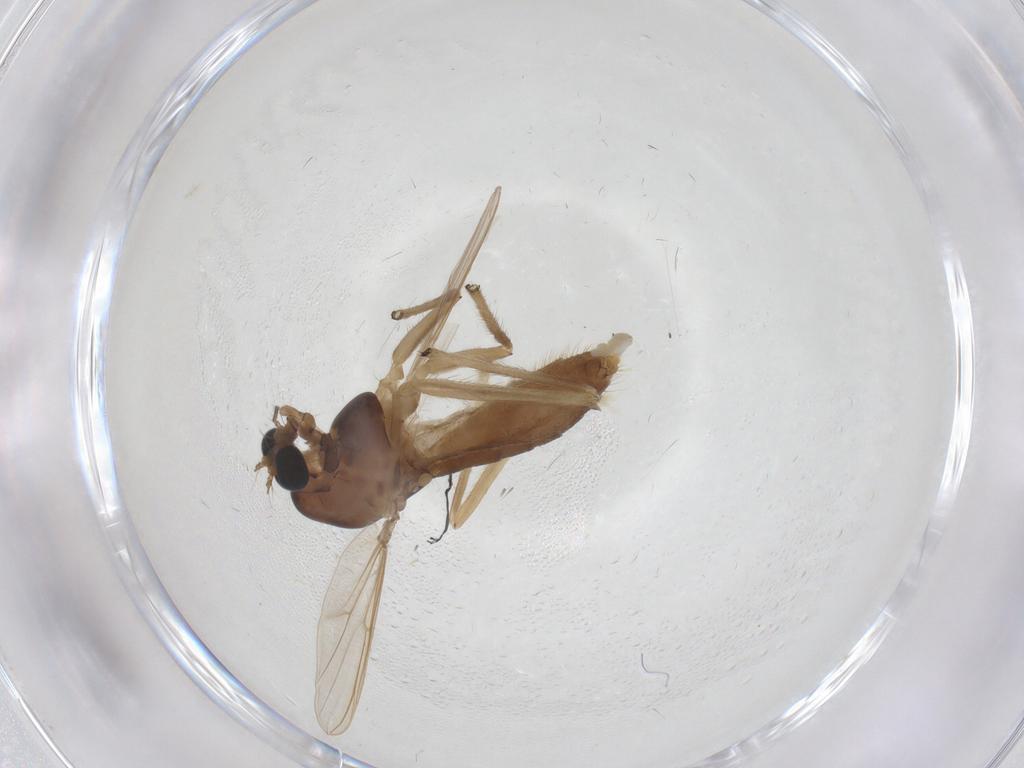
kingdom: Animalia
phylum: Arthropoda
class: Insecta
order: Diptera
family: Chironomidae
